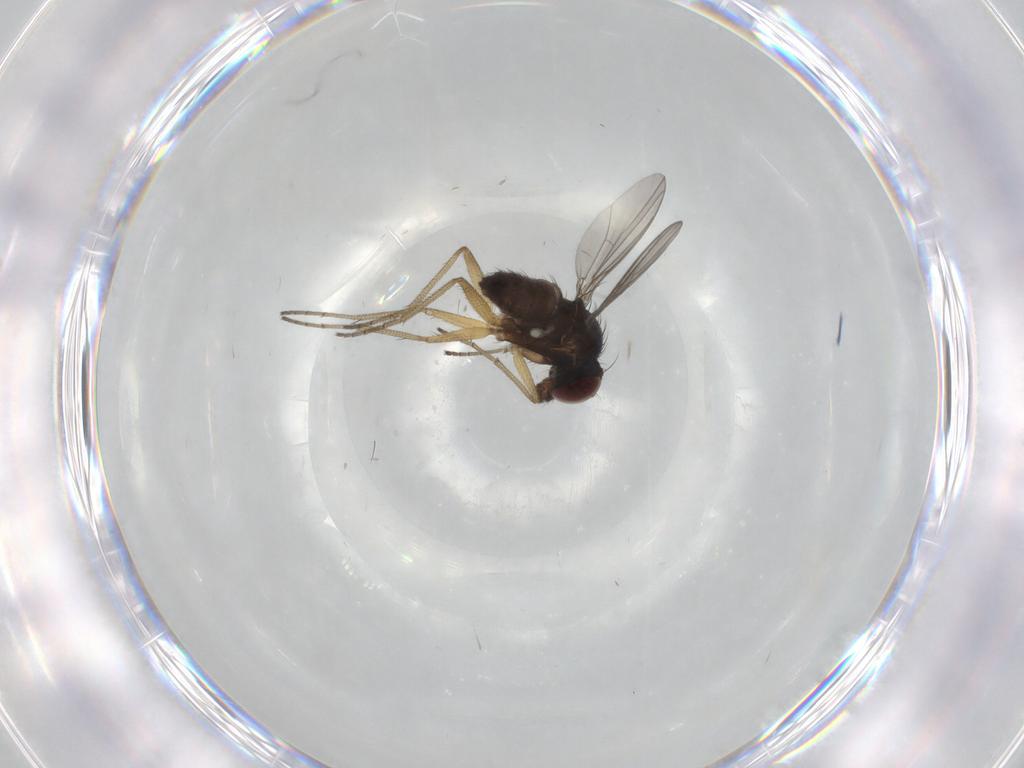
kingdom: Animalia
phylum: Arthropoda
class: Insecta
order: Diptera
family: Dolichopodidae
